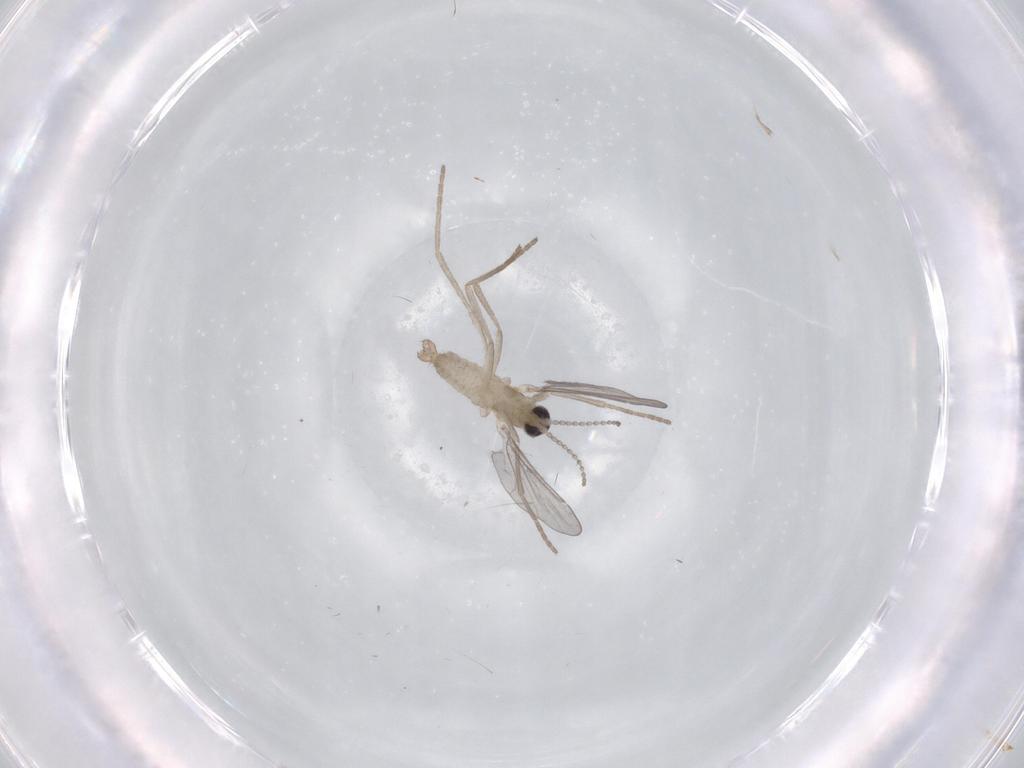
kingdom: Animalia
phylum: Arthropoda
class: Insecta
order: Diptera
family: Cecidomyiidae
